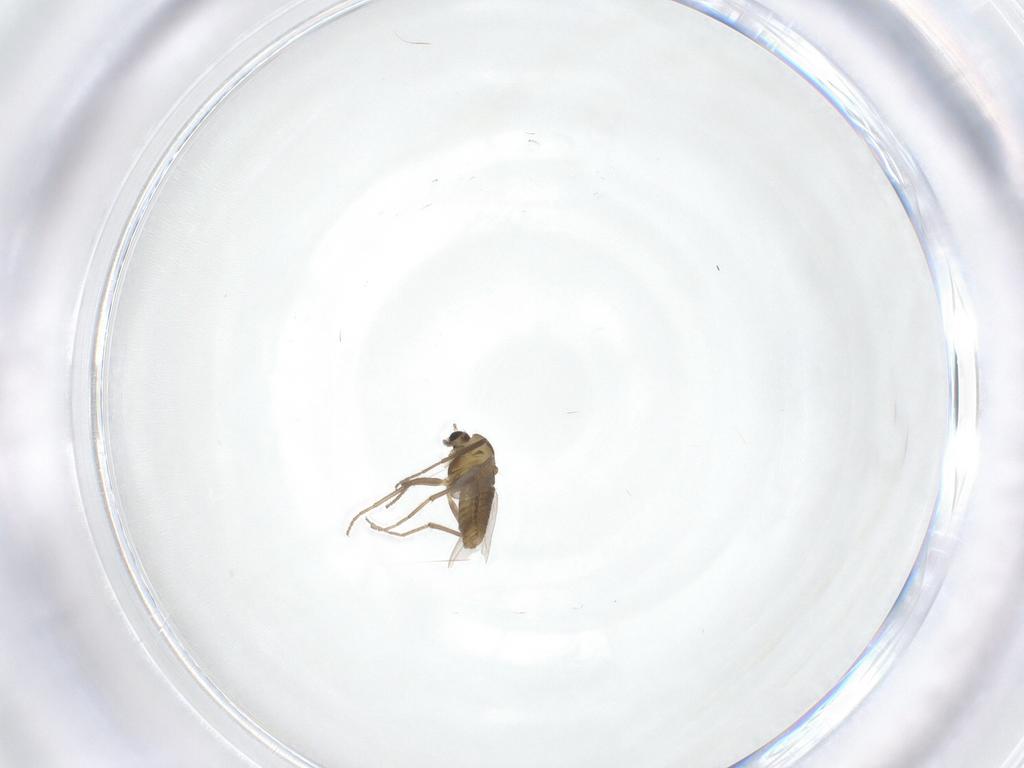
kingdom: Animalia
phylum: Arthropoda
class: Insecta
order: Diptera
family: Chironomidae
